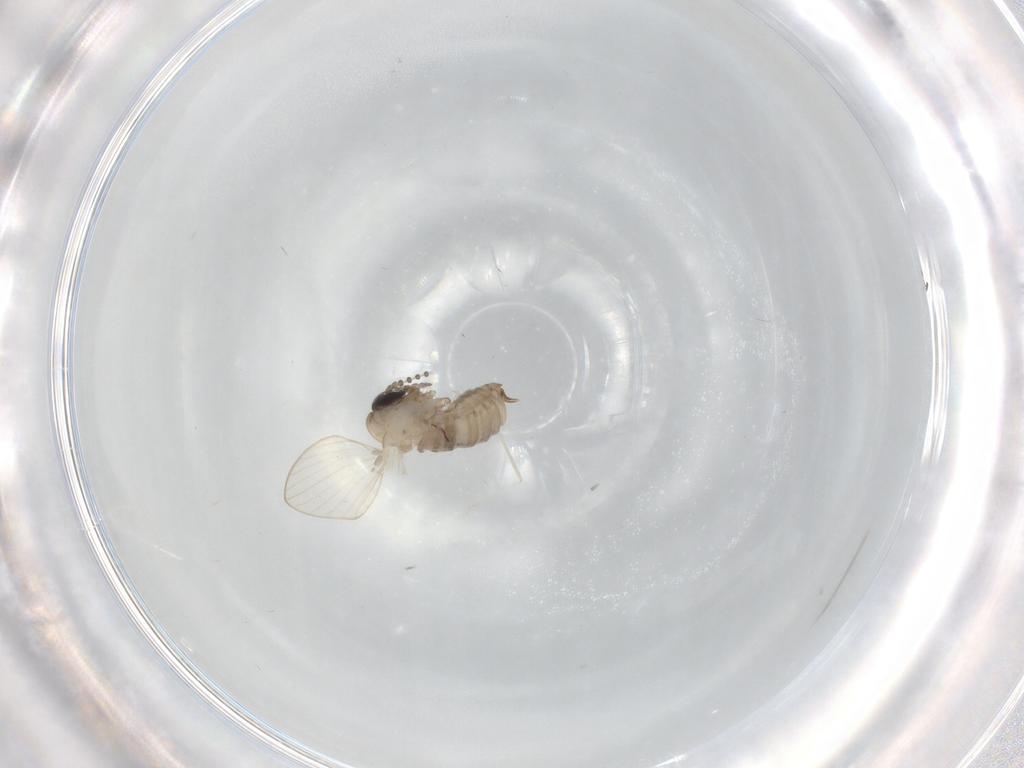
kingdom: Animalia
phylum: Arthropoda
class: Insecta
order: Diptera
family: Psychodidae
